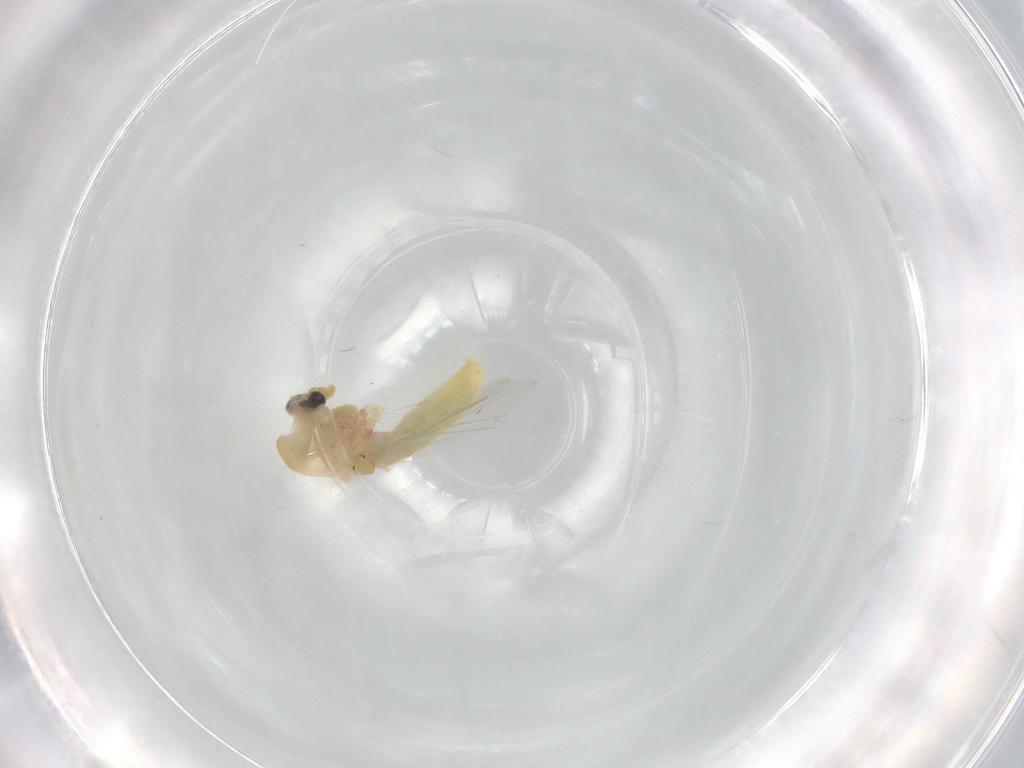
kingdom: Animalia
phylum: Arthropoda
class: Insecta
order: Diptera
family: Chironomidae
